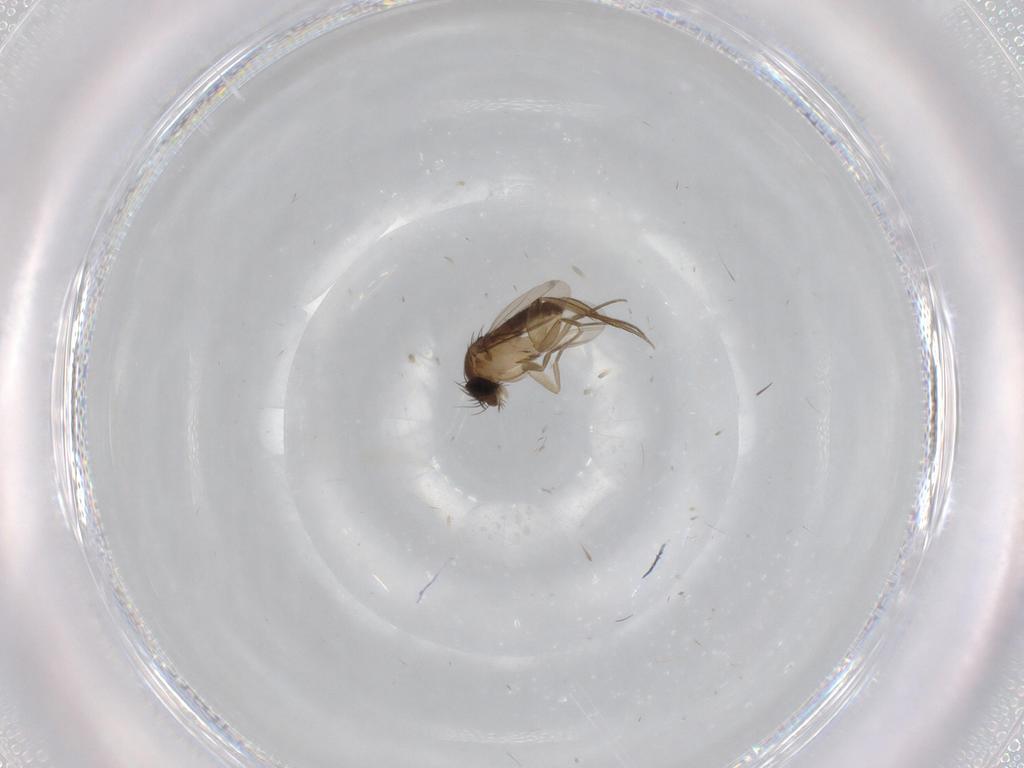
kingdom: Animalia
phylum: Arthropoda
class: Insecta
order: Diptera
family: Phoridae
